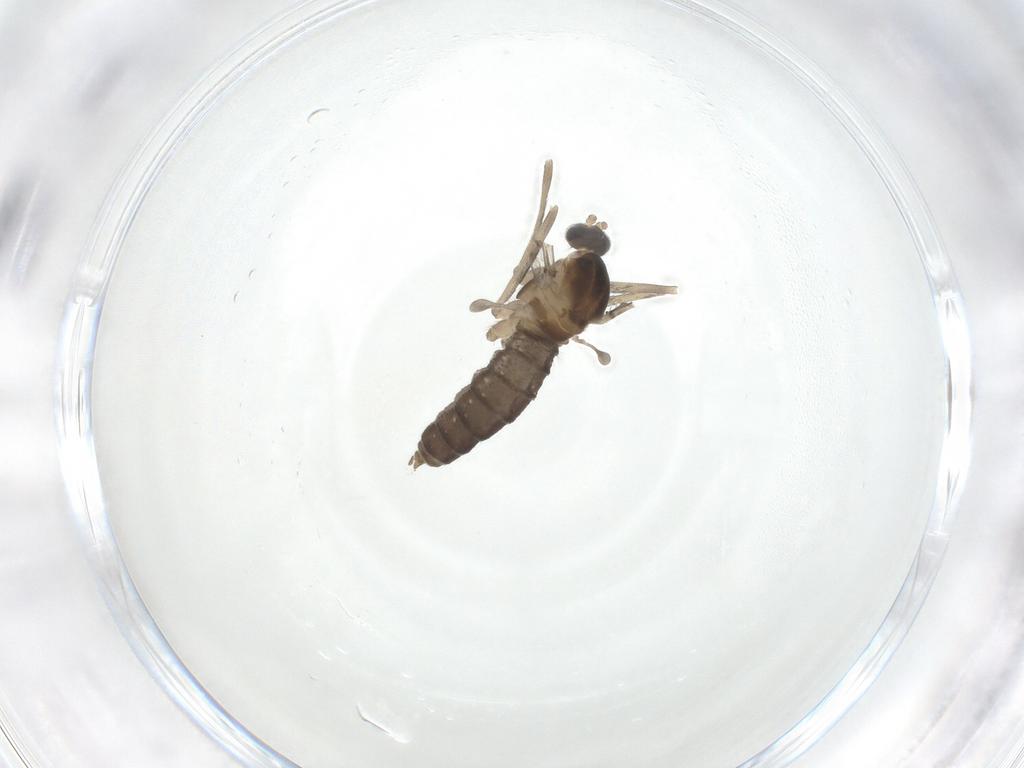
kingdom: Animalia
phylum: Arthropoda
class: Insecta
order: Diptera
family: Cecidomyiidae
